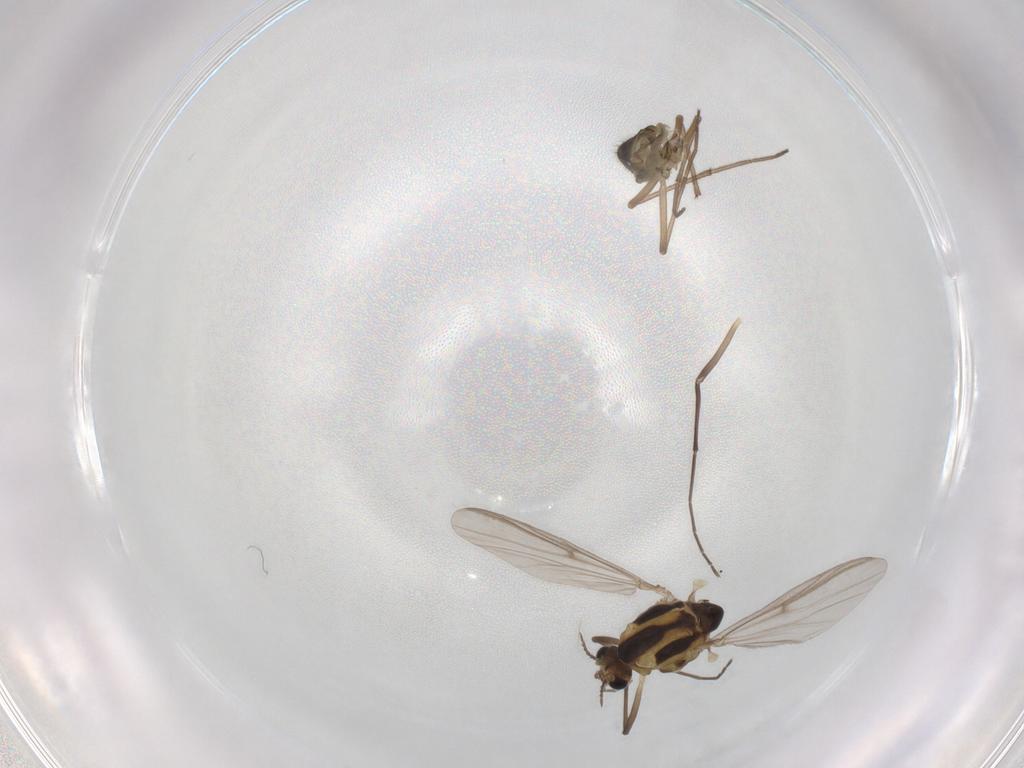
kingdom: Animalia
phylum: Arthropoda
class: Insecta
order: Diptera
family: Chironomidae
